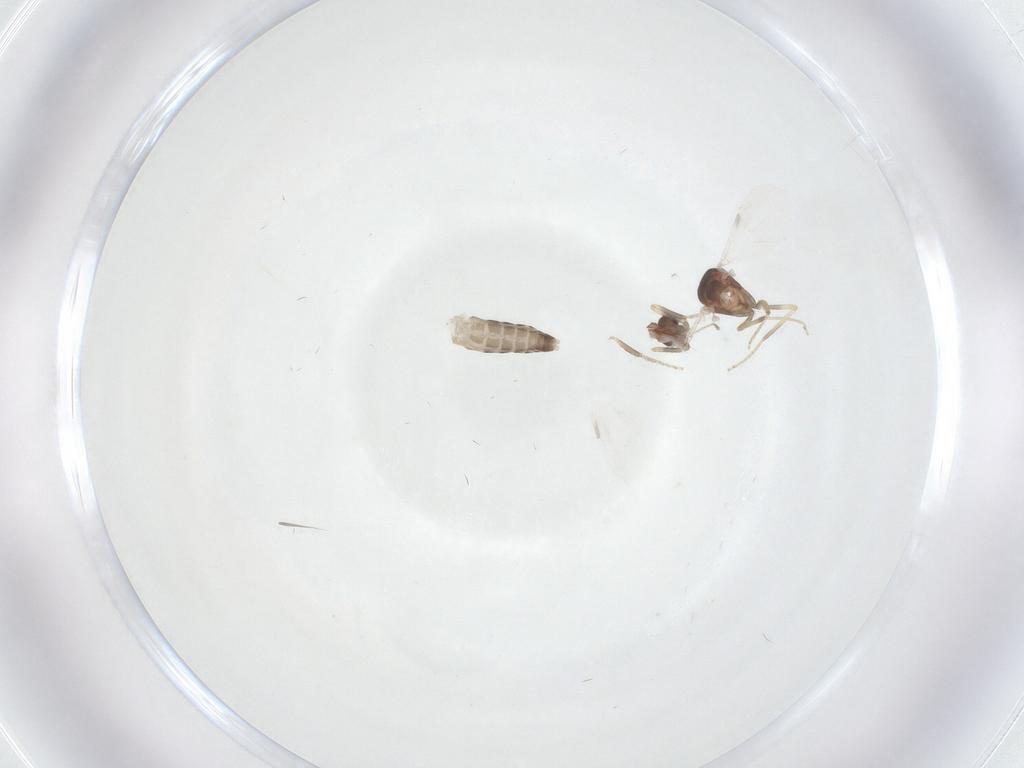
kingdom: Animalia
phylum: Arthropoda
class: Insecta
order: Diptera
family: Ceratopogonidae
